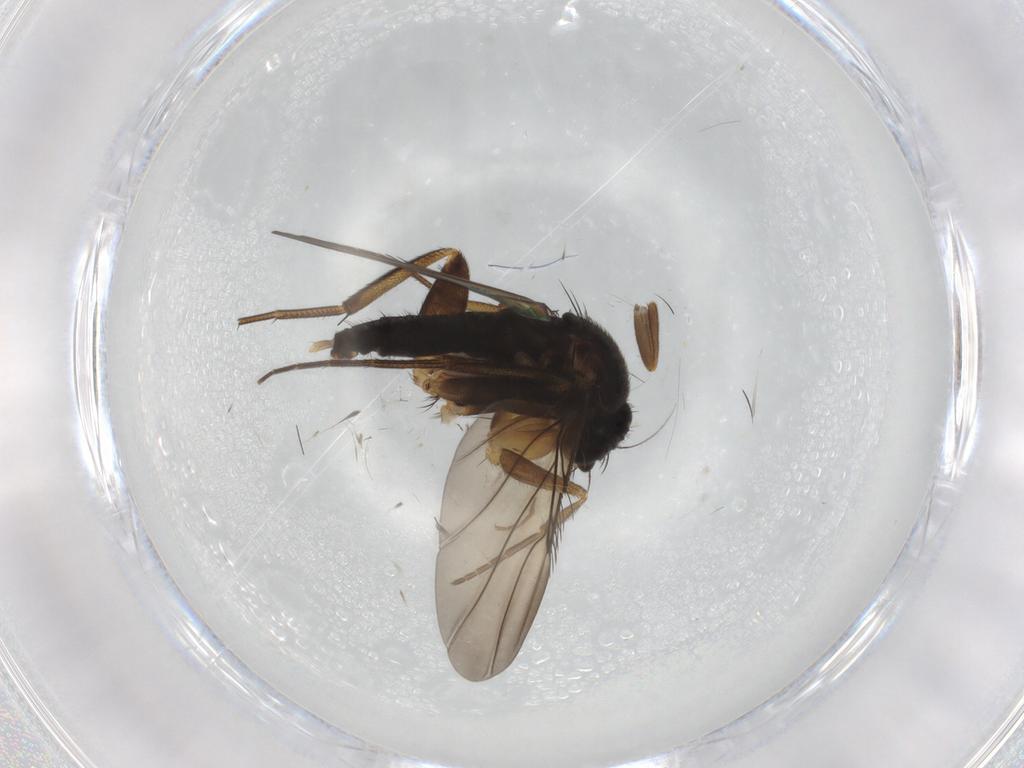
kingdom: Animalia
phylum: Arthropoda
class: Insecta
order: Diptera
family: Phoridae
